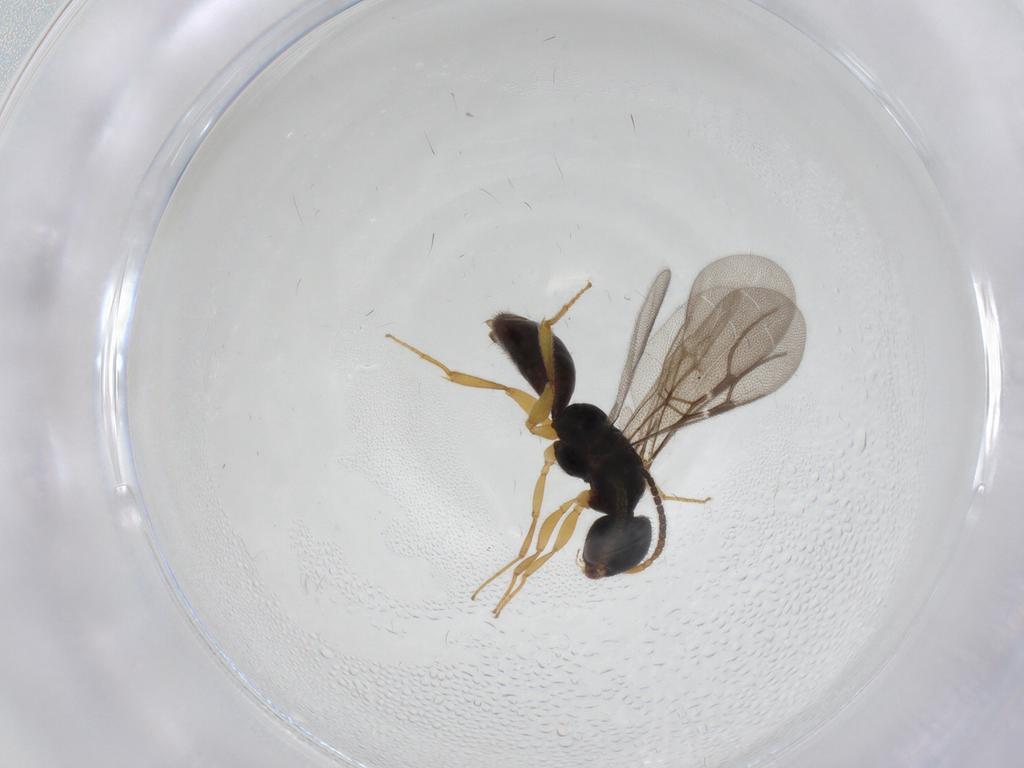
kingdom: Animalia
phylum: Arthropoda
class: Insecta
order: Hymenoptera
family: Bethylidae
